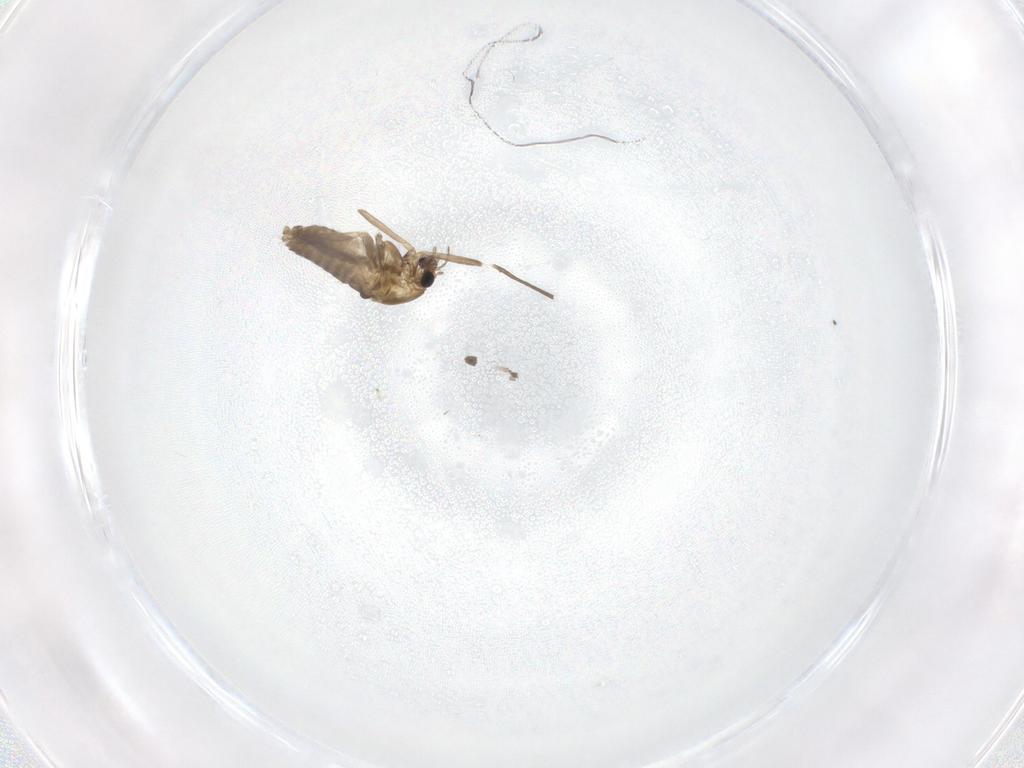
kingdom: Animalia
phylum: Arthropoda
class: Insecta
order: Diptera
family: Chironomidae
